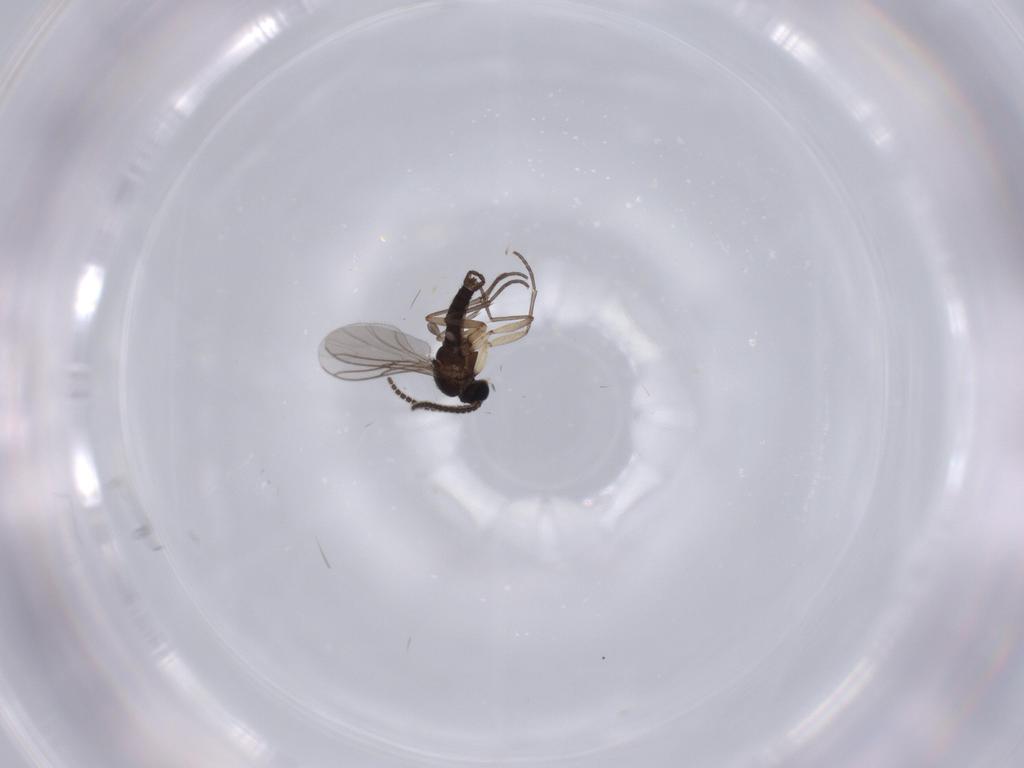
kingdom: Animalia
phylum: Arthropoda
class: Insecta
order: Diptera
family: Sciaridae
